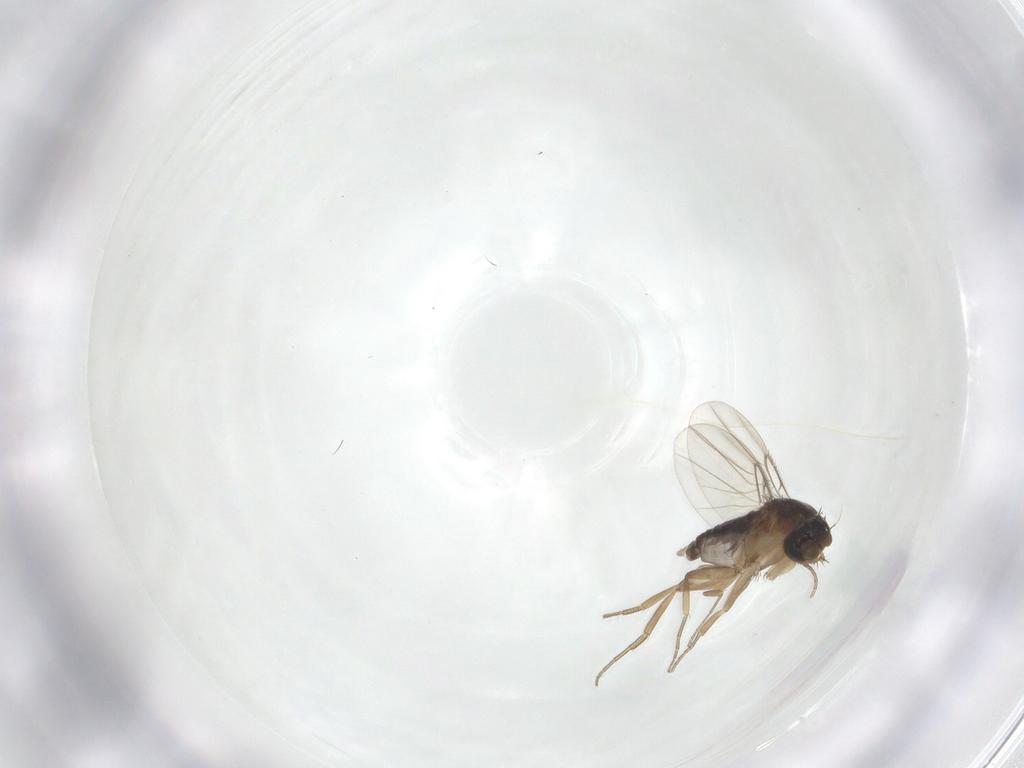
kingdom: Animalia
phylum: Arthropoda
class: Insecta
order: Diptera
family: Phoridae
